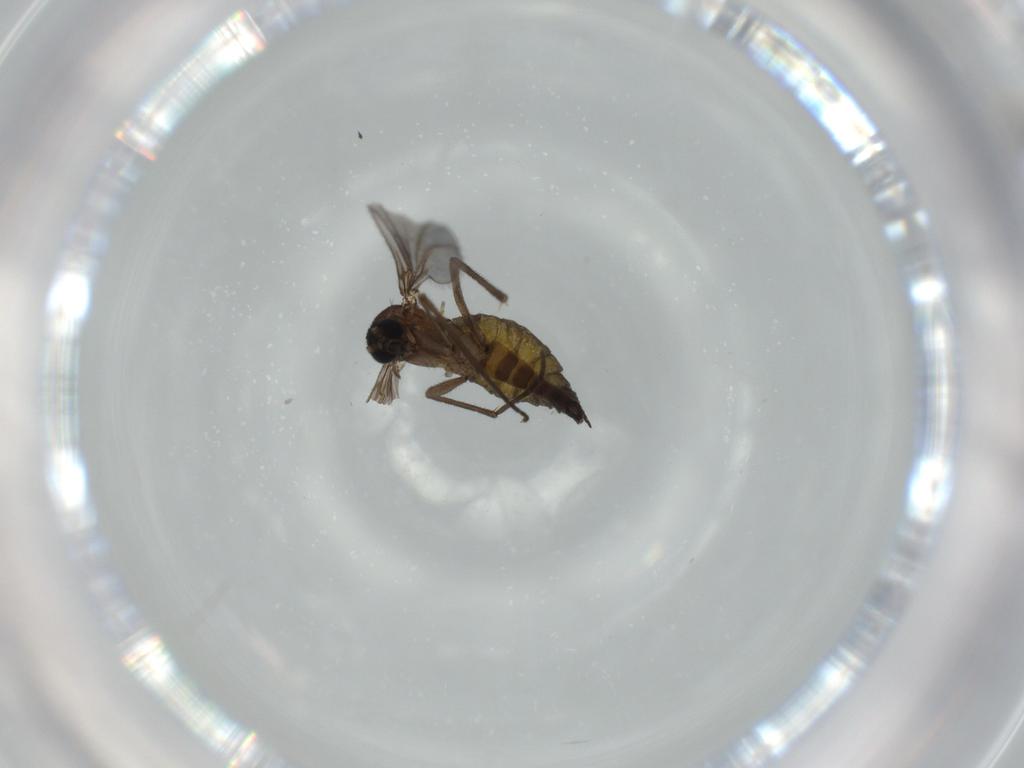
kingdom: Animalia
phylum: Arthropoda
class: Insecta
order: Diptera
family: Sciaridae
